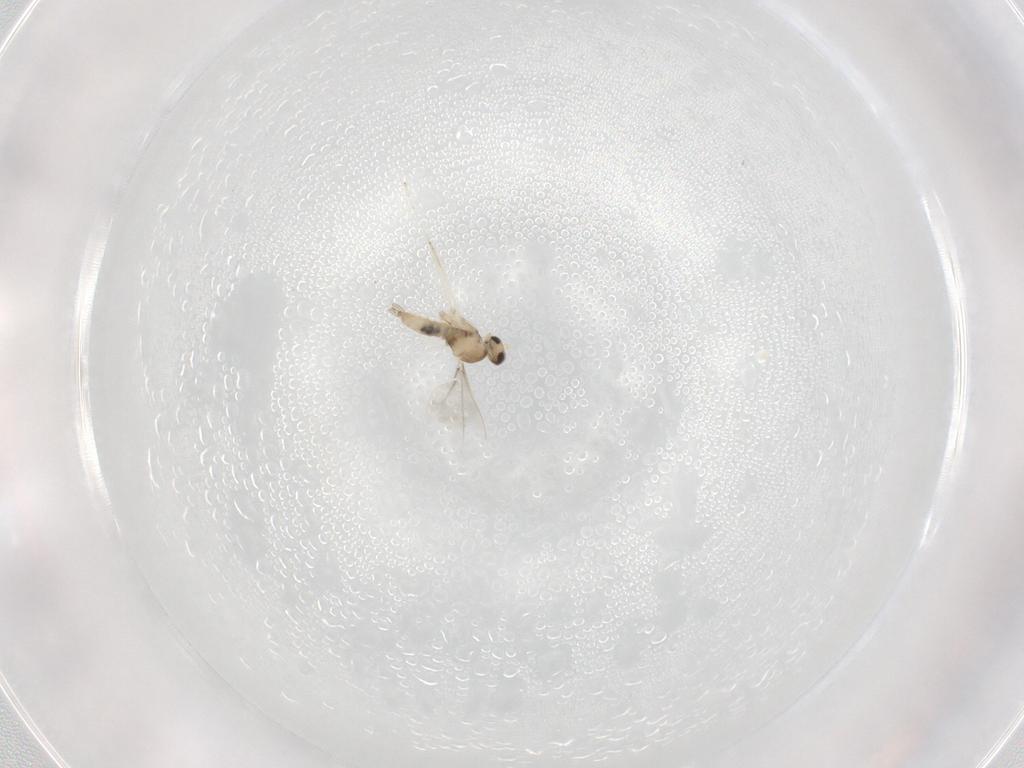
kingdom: Animalia
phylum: Arthropoda
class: Insecta
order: Diptera
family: Cecidomyiidae
